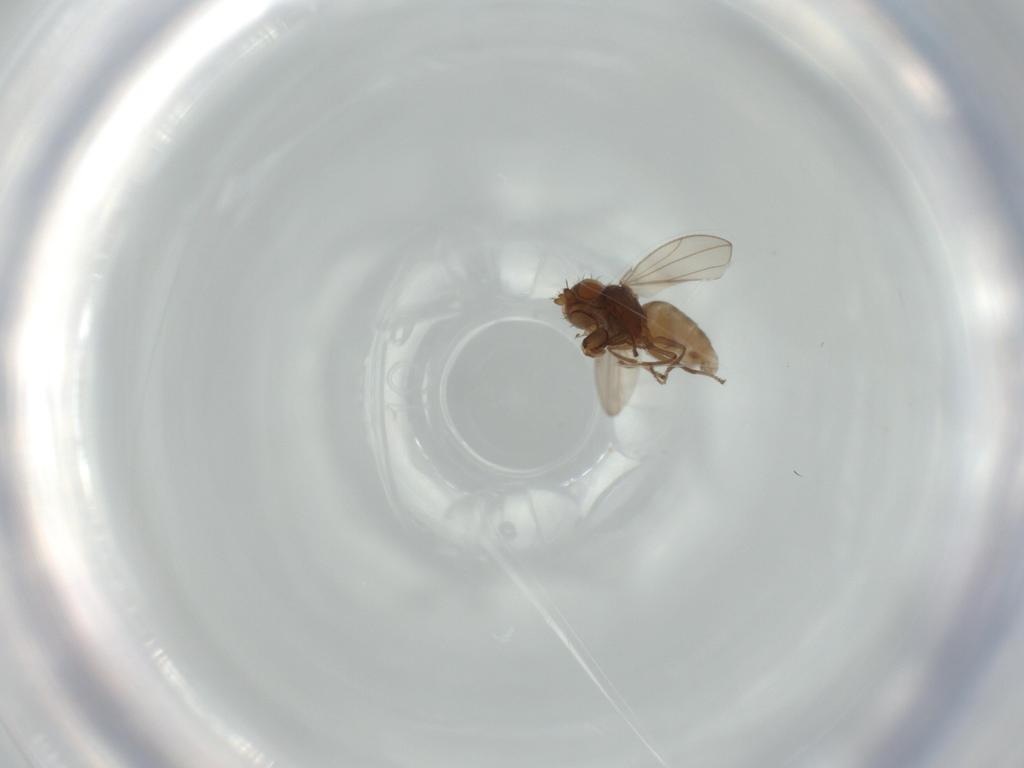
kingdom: Animalia
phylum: Arthropoda
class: Insecta
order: Diptera
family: Ephydridae
